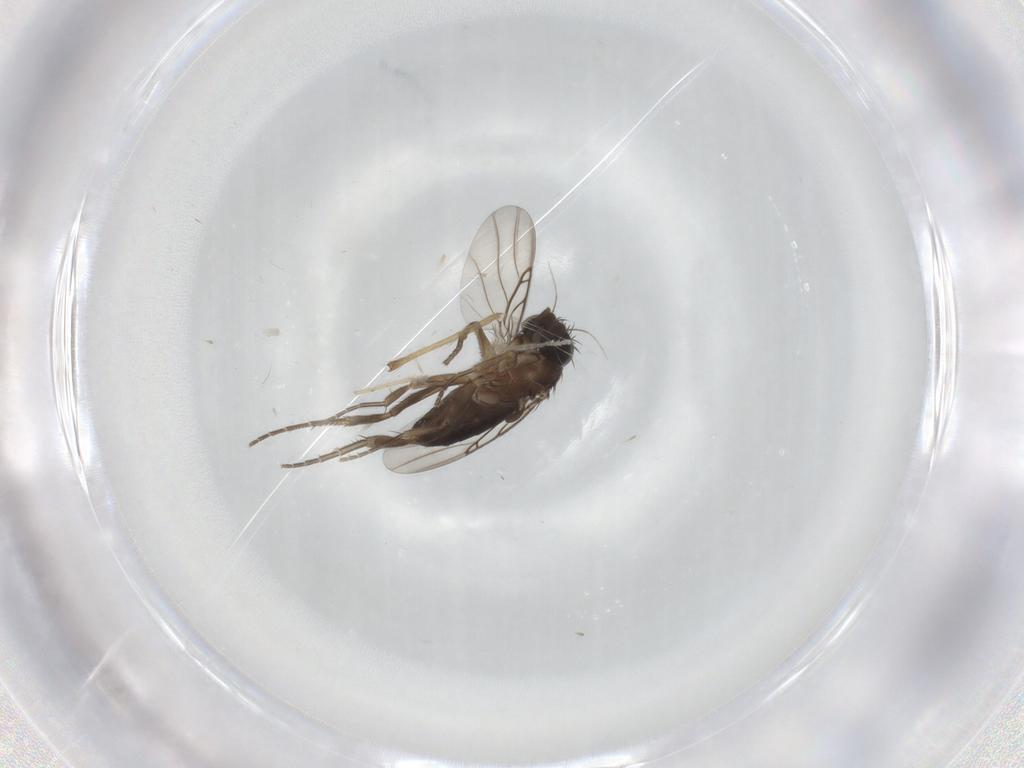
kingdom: Animalia
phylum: Arthropoda
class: Insecta
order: Diptera
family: Phoridae
